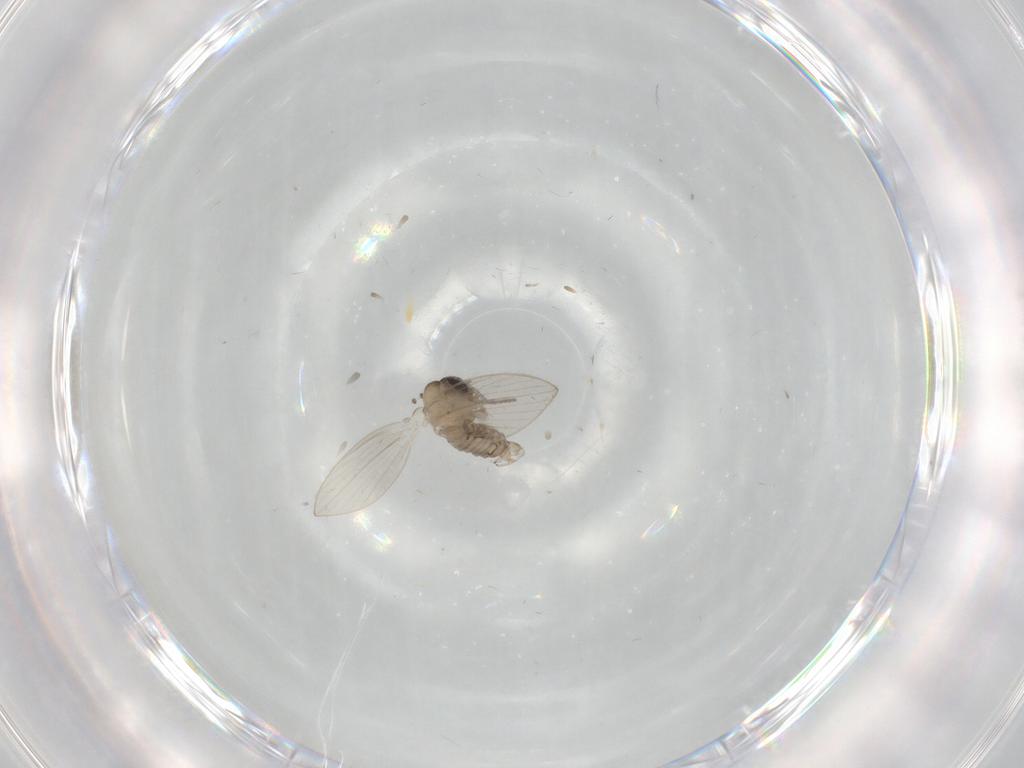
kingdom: Animalia
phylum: Arthropoda
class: Insecta
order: Diptera
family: Psychodidae
